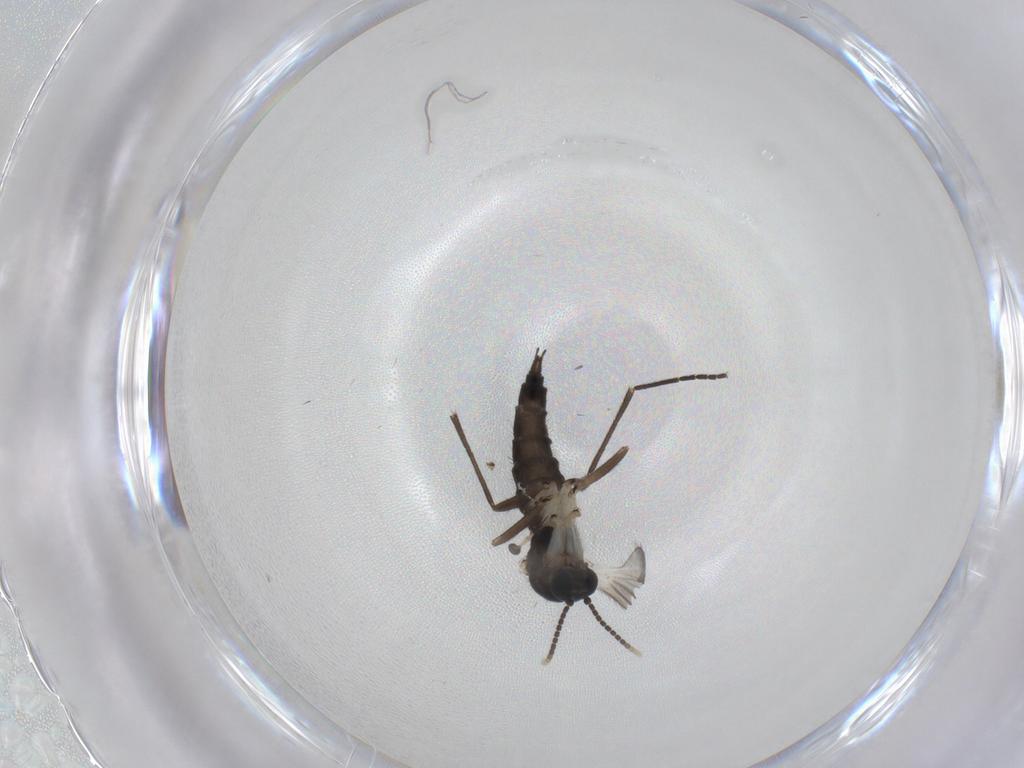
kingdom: Animalia
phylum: Arthropoda
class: Insecta
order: Diptera
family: Sciaridae
